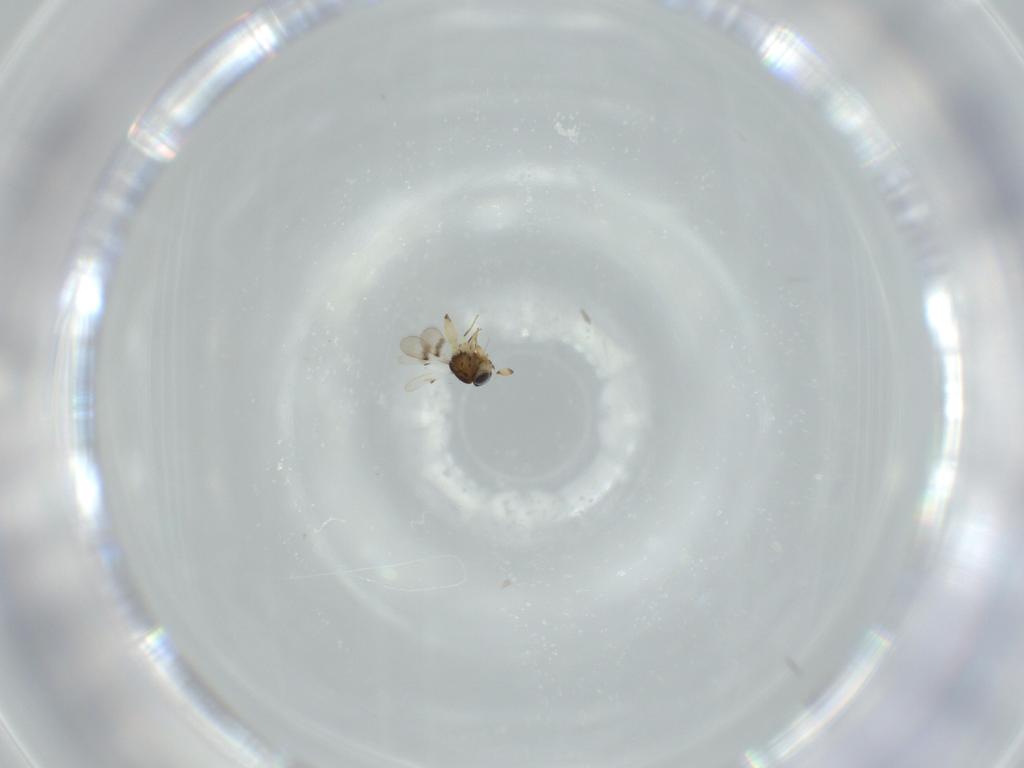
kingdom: Animalia
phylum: Arthropoda
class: Insecta
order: Hymenoptera
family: Scelionidae
